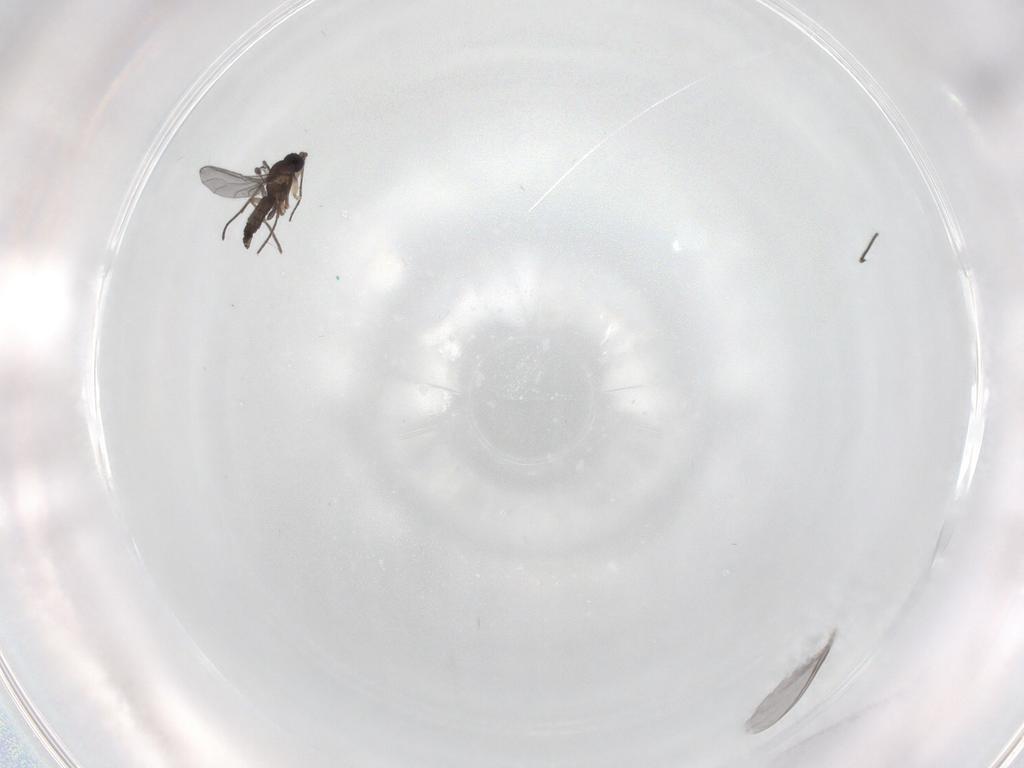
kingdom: Animalia
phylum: Arthropoda
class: Insecta
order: Diptera
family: Sciaridae
